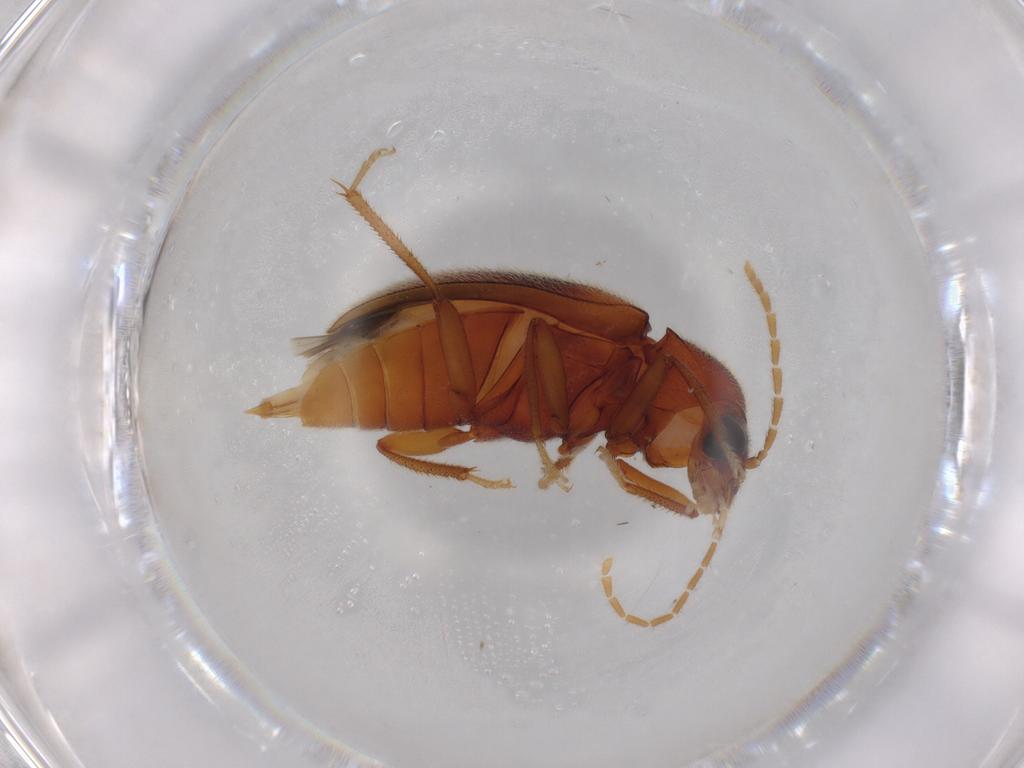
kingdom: Animalia
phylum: Arthropoda
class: Insecta
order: Coleoptera
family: Ptilodactylidae
